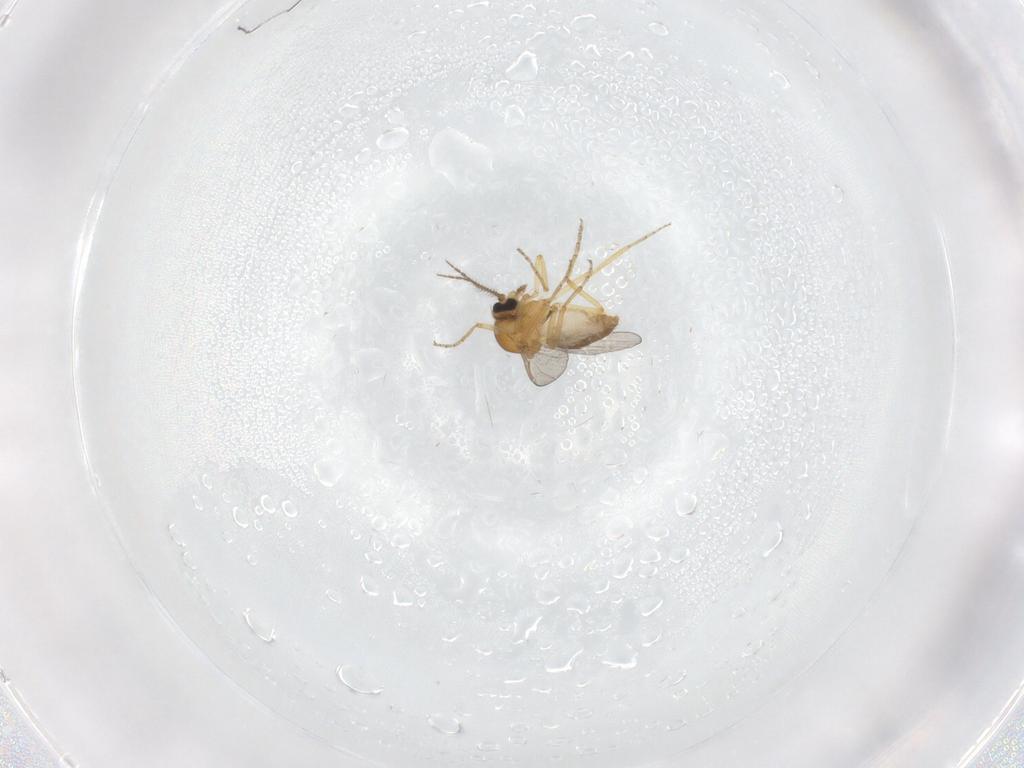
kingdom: Animalia
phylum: Arthropoda
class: Insecta
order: Diptera
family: Ceratopogonidae
